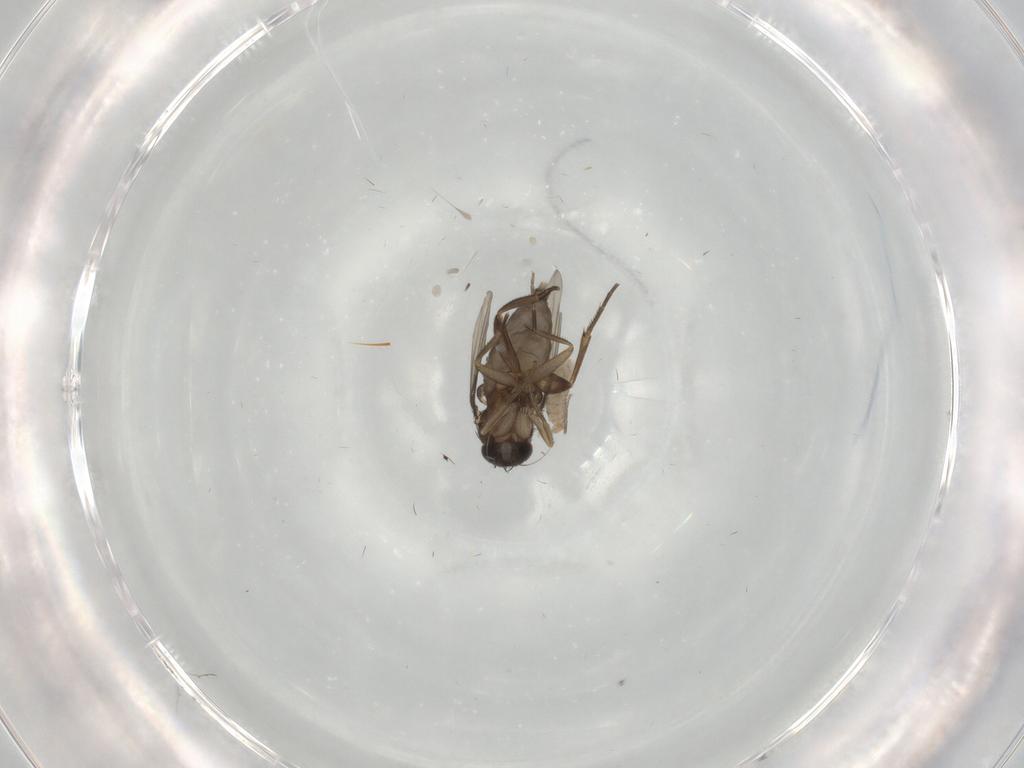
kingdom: Animalia
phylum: Arthropoda
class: Insecta
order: Diptera
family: Phoridae
